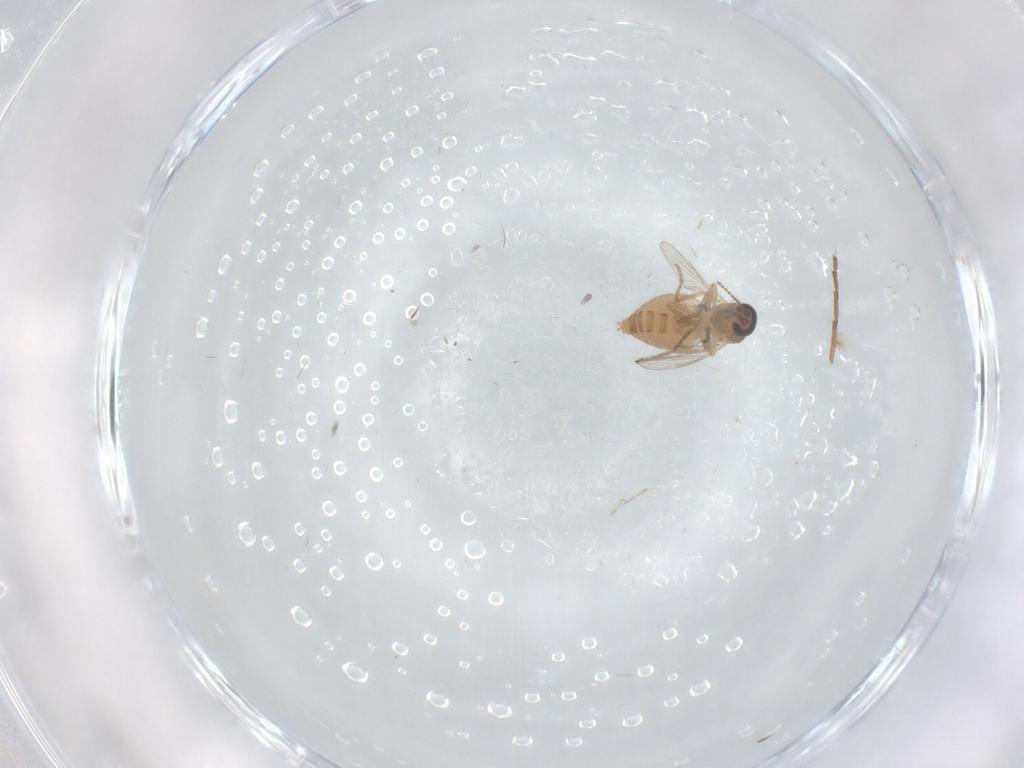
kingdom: Animalia
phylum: Arthropoda
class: Insecta
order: Diptera
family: Ceratopogonidae
